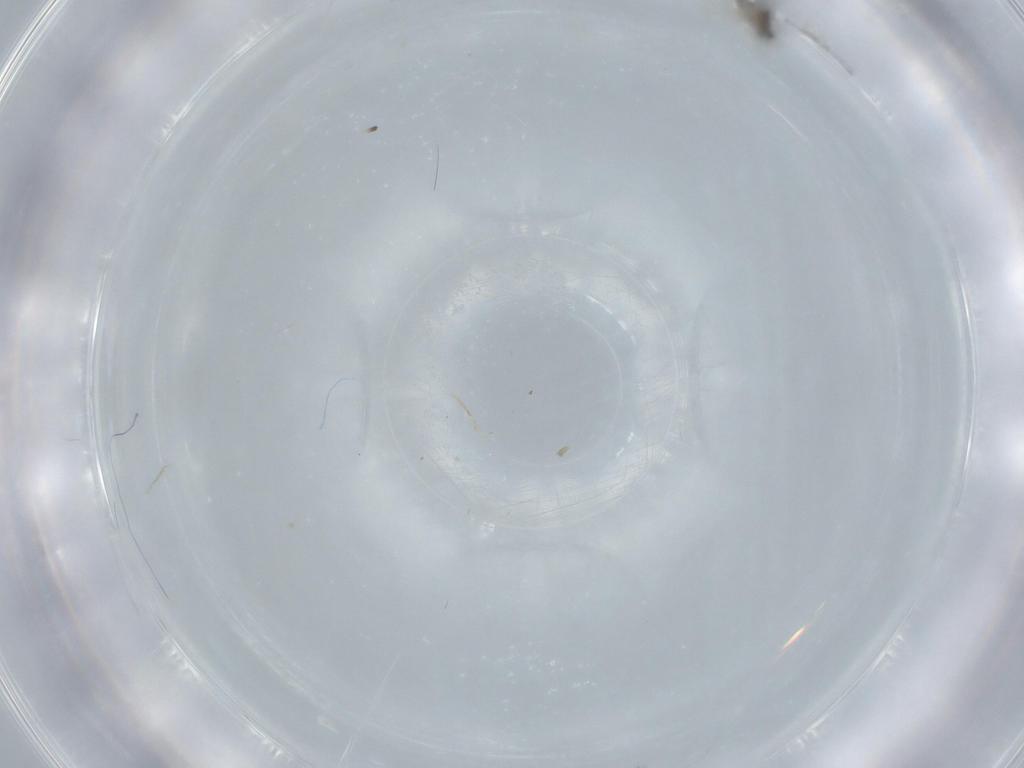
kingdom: Animalia
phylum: Arthropoda
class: Insecta
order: Diptera
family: Cecidomyiidae
